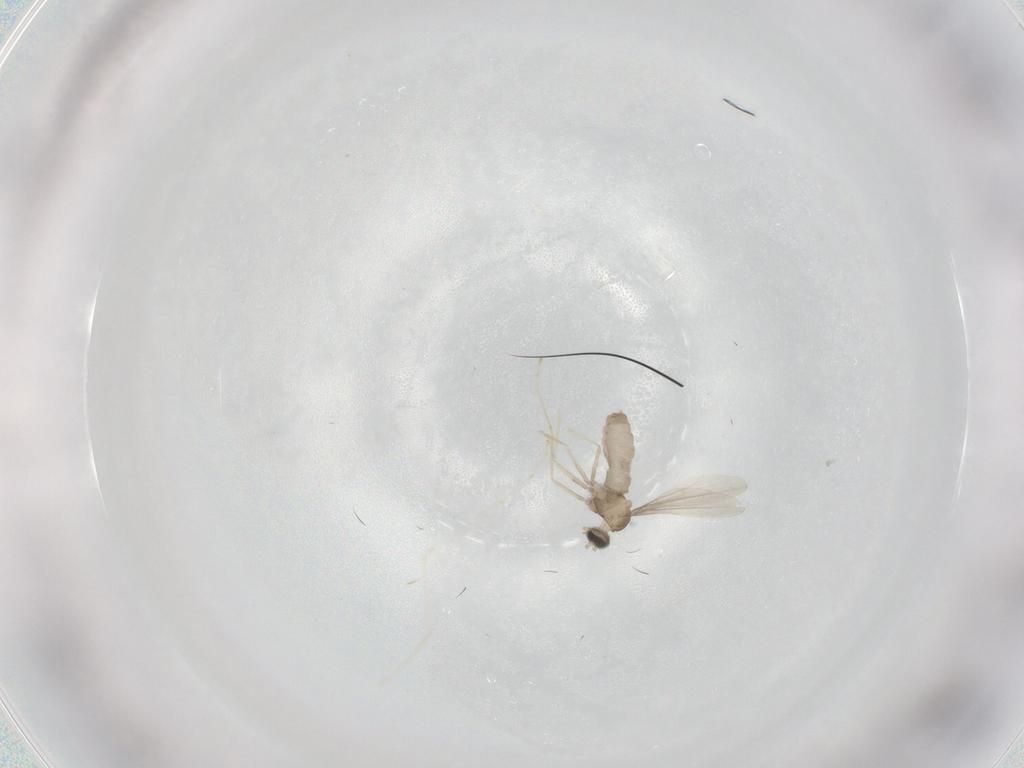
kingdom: Animalia
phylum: Arthropoda
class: Insecta
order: Diptera
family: Cecidomyiidae
